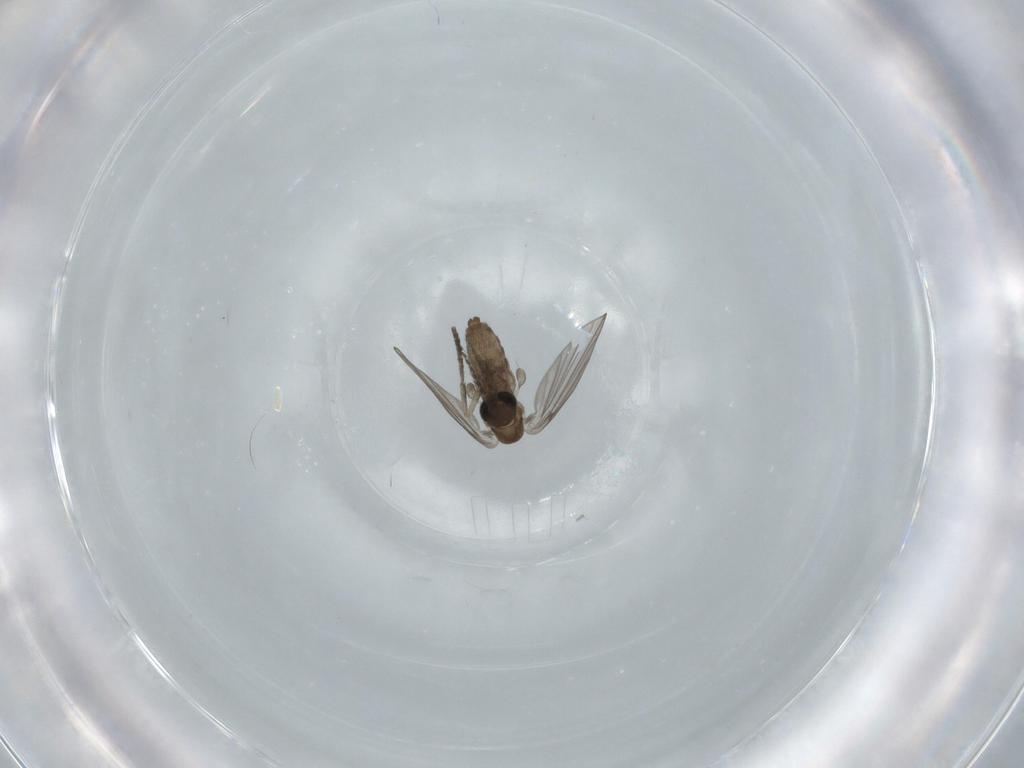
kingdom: Animalia
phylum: Arthropoda
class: Insecta
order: Diptera
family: Psychodidae
